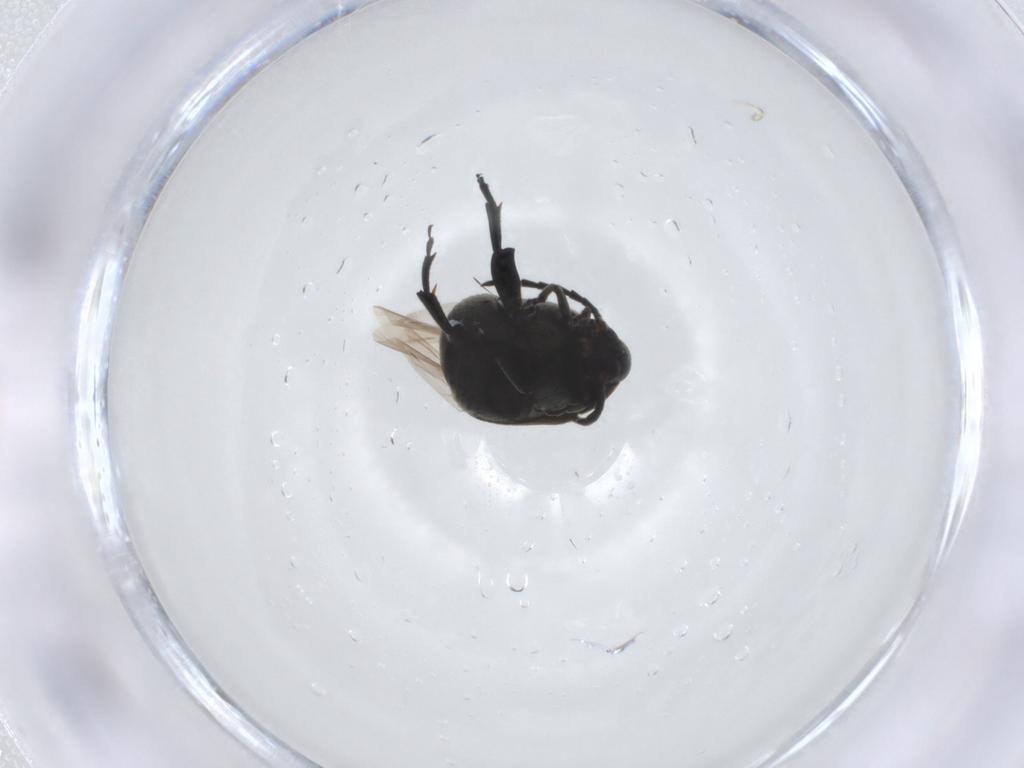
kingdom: Animalia
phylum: Arthropoda
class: Insecta
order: Coleoptera
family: Chrysomelidae
